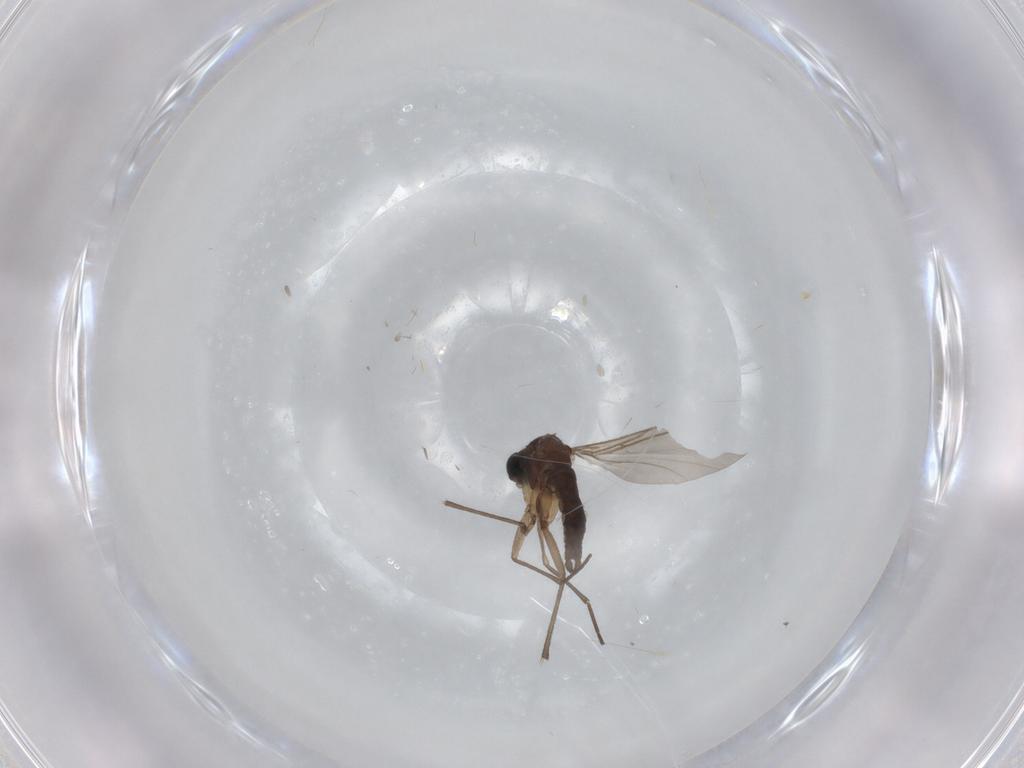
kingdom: Animalia
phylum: Arthropoda
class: Insecta
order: Diptera
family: Sciaridae
